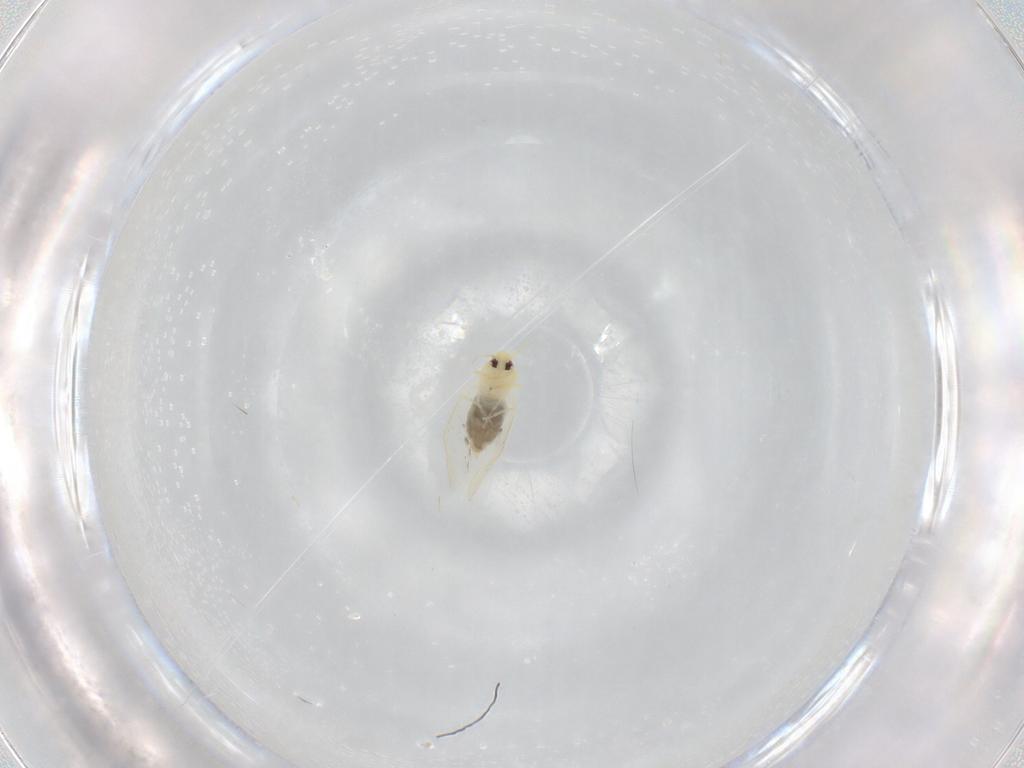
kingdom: Animalia
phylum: Arthropoda
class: Insecta
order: Hemiptera
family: Aleyrodidae
